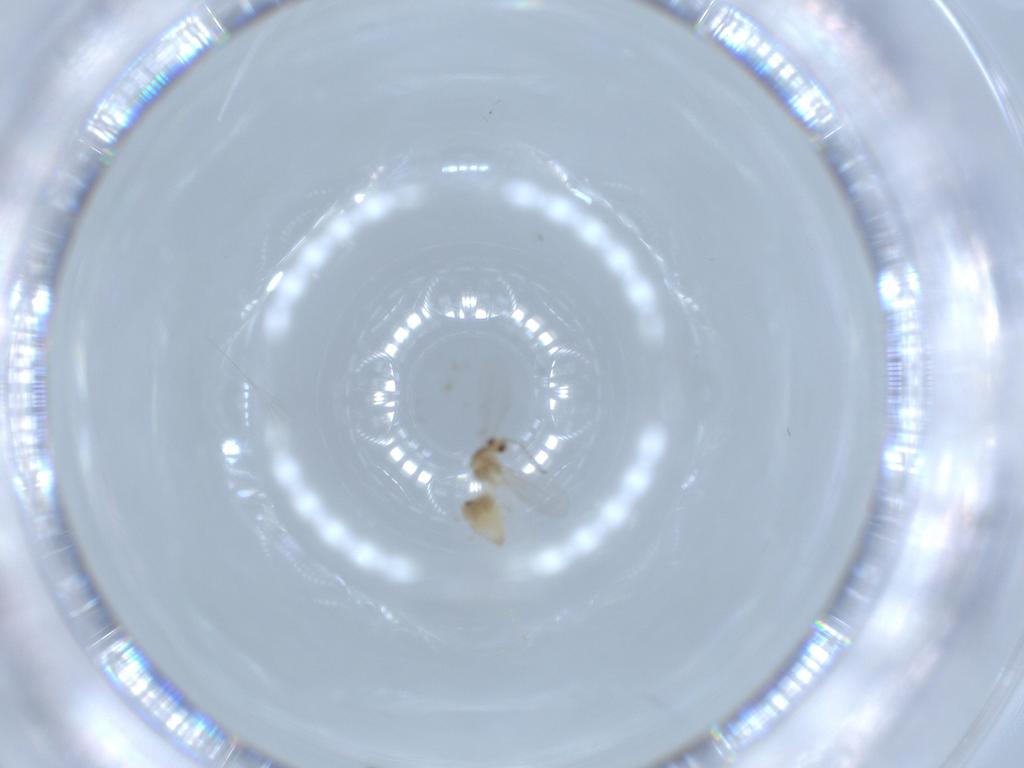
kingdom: Animalia
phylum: Arthropoda
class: Insecta
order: Diptera
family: Cecidomyiidae
